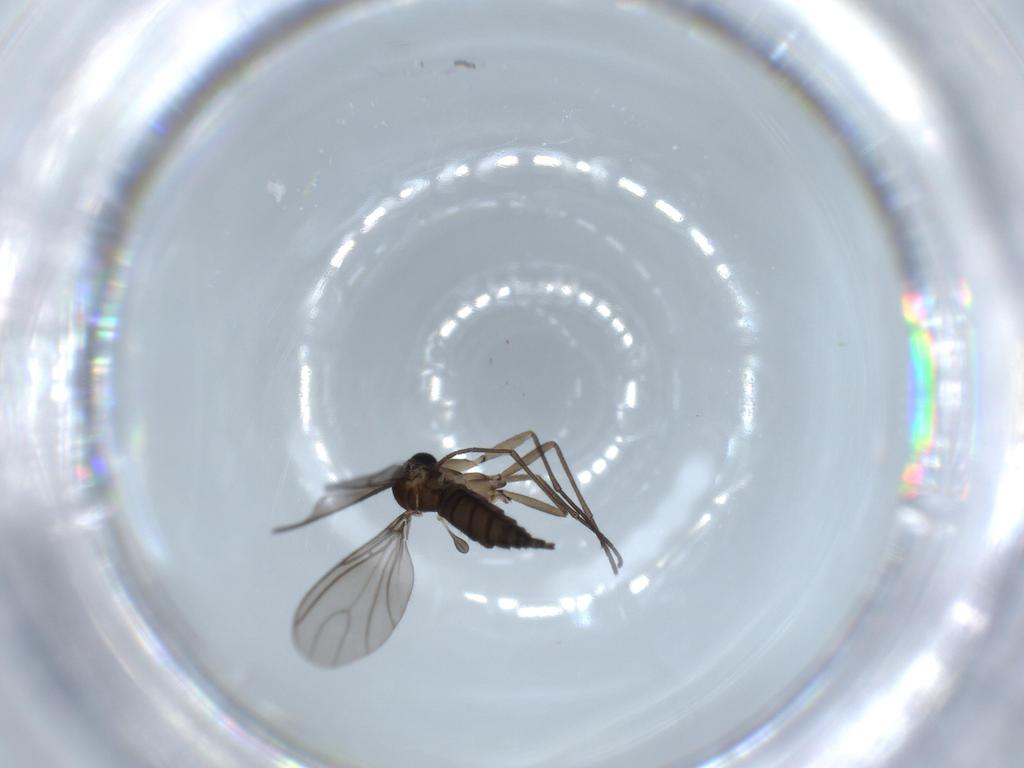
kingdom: Animalia
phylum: Arthropoda
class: Insecta
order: Diptera
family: Sciaridae
